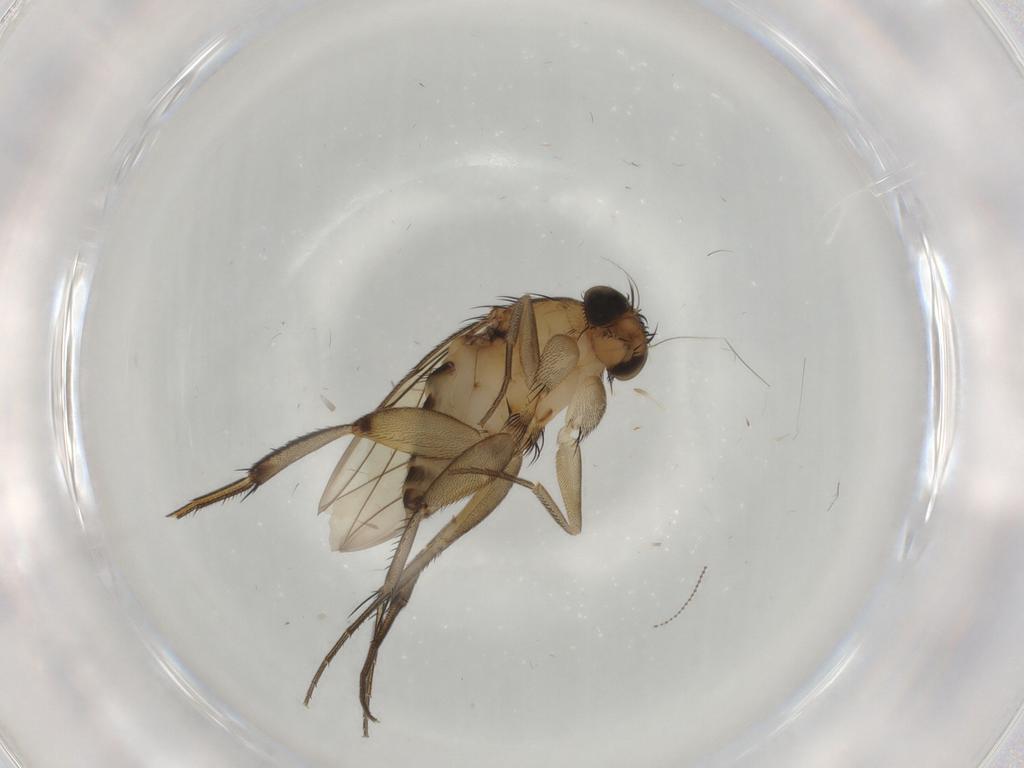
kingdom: Animalia
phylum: Arthropoda
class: Insecta
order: Diptera
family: Phoridae
